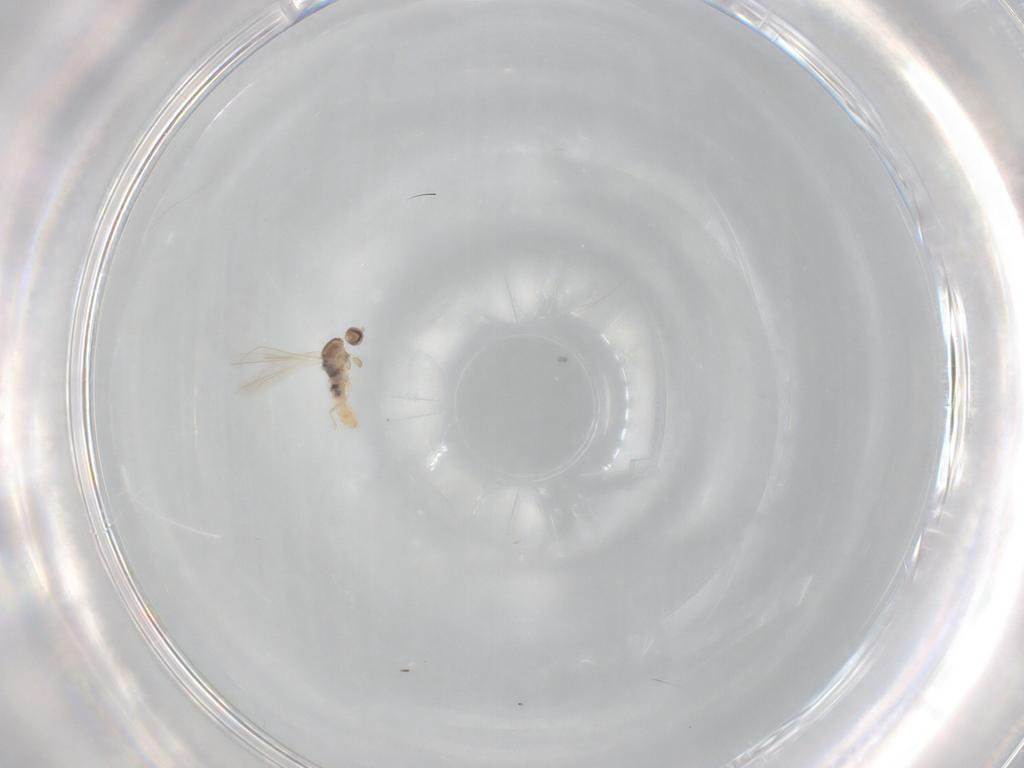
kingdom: Animalia
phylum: Arthropoda
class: Insecta
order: Diptera
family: Cecidomyiidae
